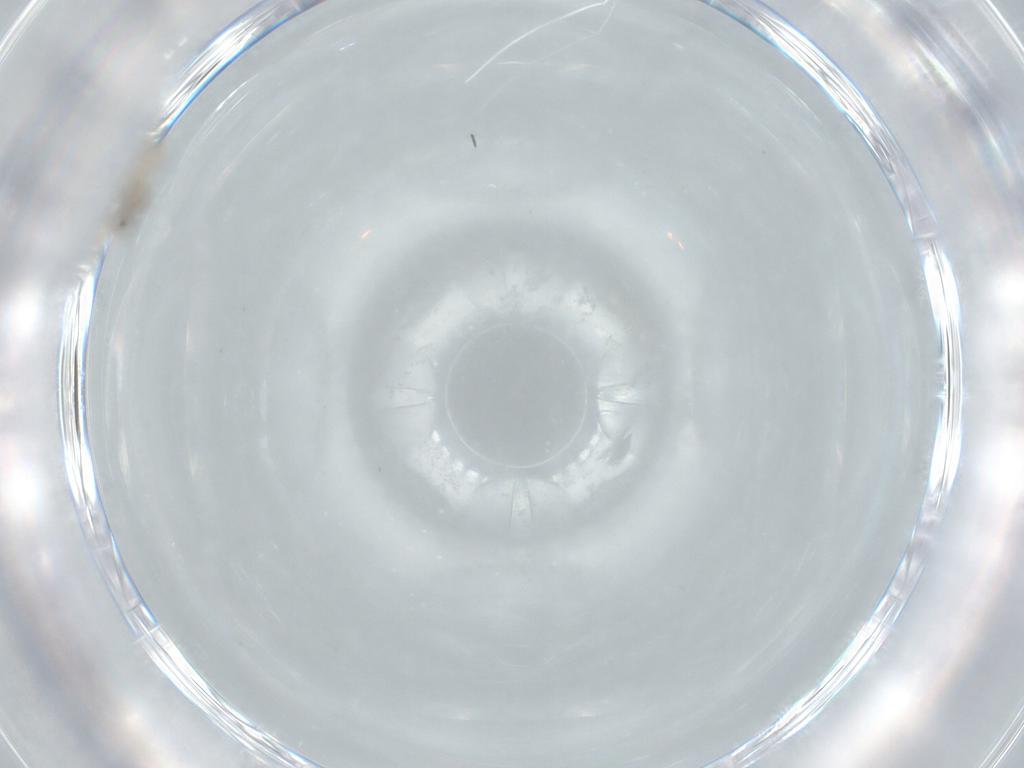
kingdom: Animalia
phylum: Arthropoda
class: Insecta
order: Diptera
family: Cecidomyiidae
